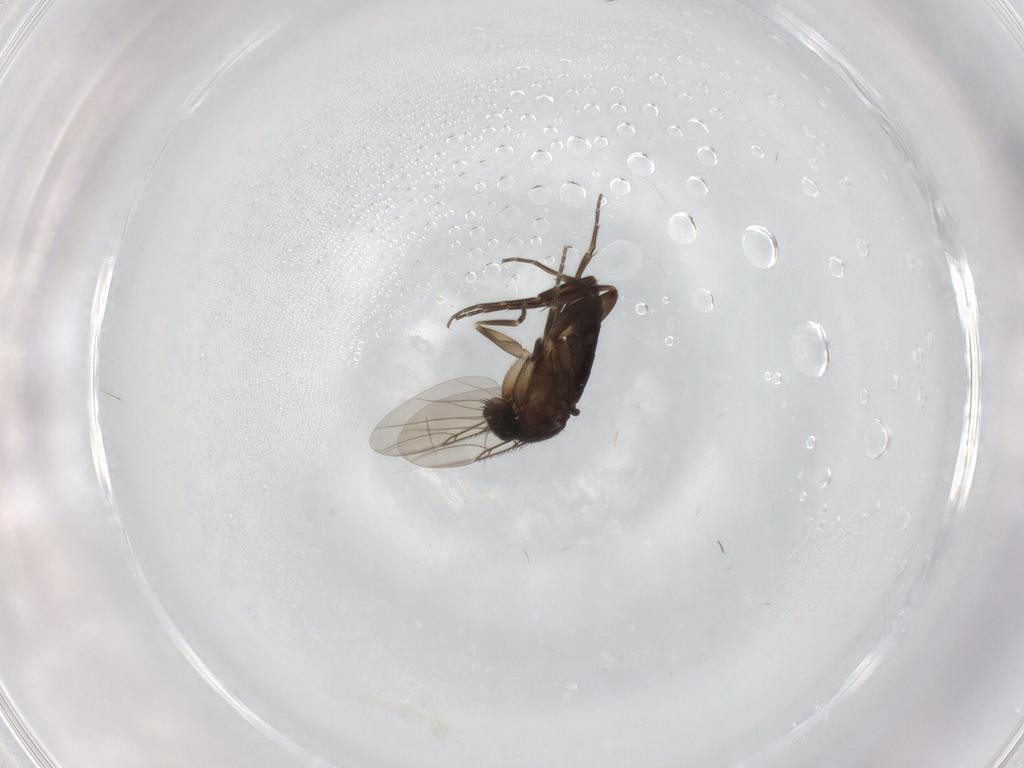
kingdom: Animalia
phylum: Arthropoda
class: Insecta
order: Diptera
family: Phoridae
